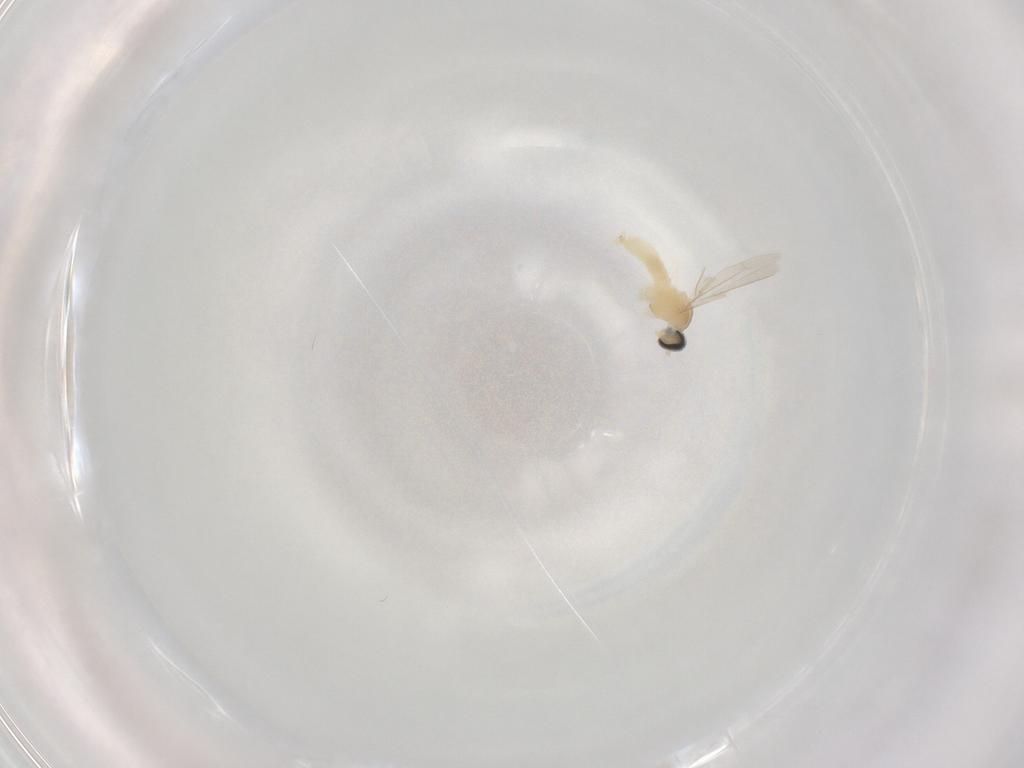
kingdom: Animalia
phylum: Arthropoda
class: Insecta
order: Diptera
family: Cecidomyiidae
